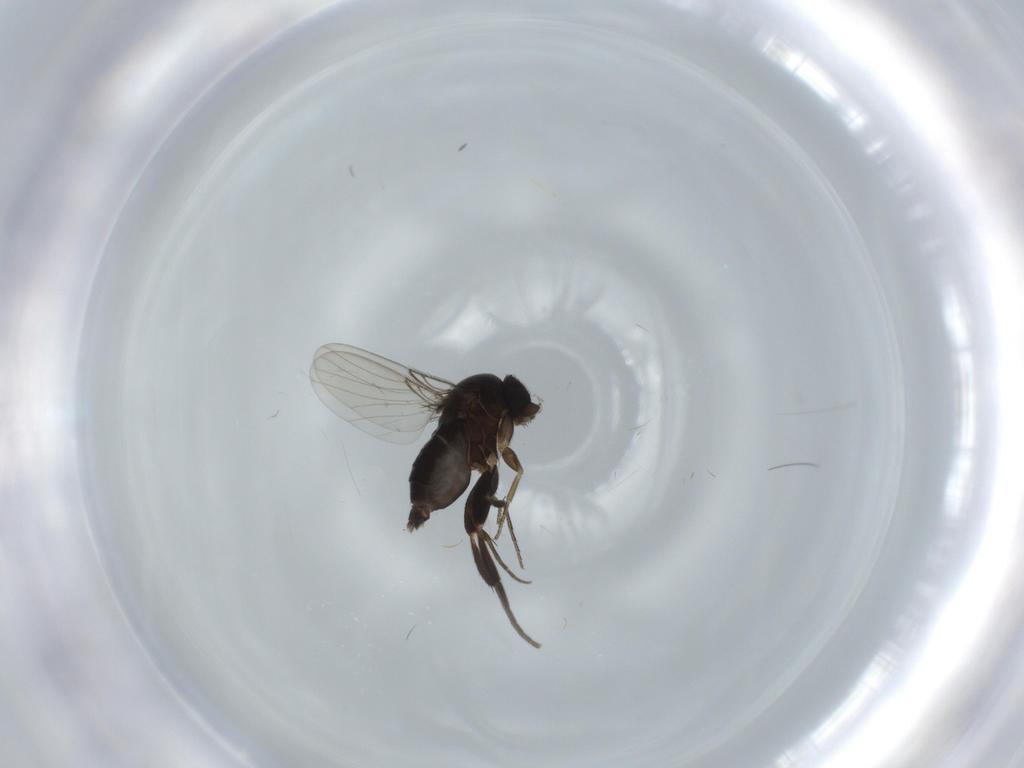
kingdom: Animalia
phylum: Arthropoda
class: Insecta
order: Diptera
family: Phoridae
